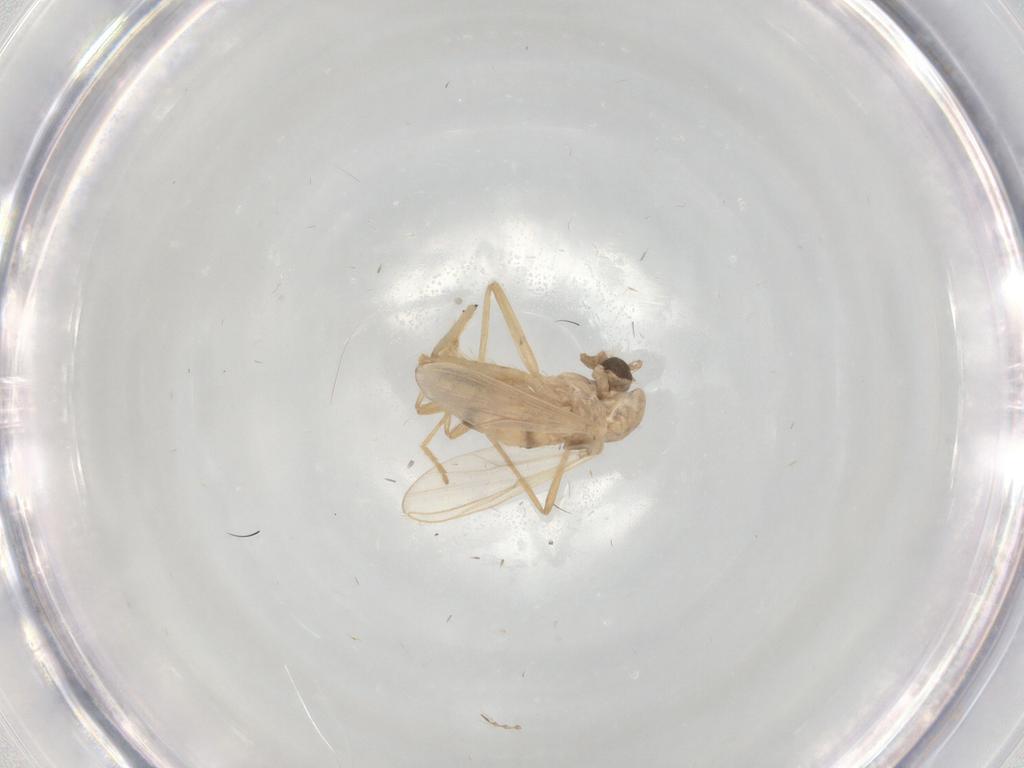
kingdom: Animalia
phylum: Arthropoda
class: Insecta
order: Diptera
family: Chironomidae
